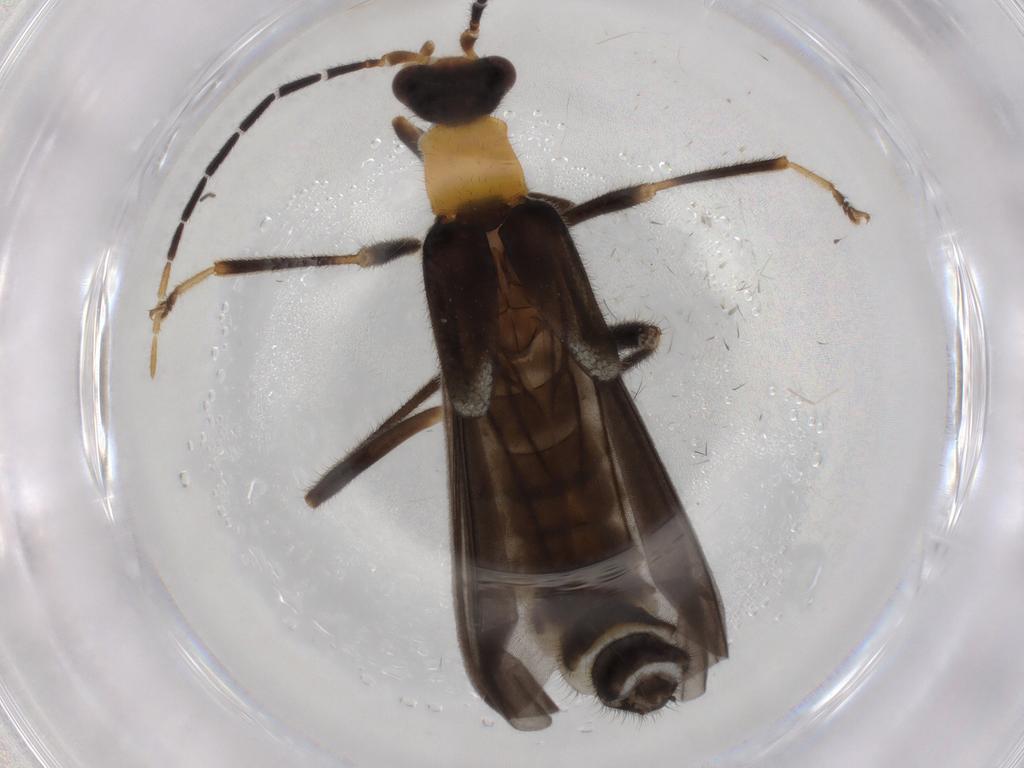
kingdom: Animalia
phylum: Arthropoda
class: Insecta
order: Coleoptera
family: Cantharidae
